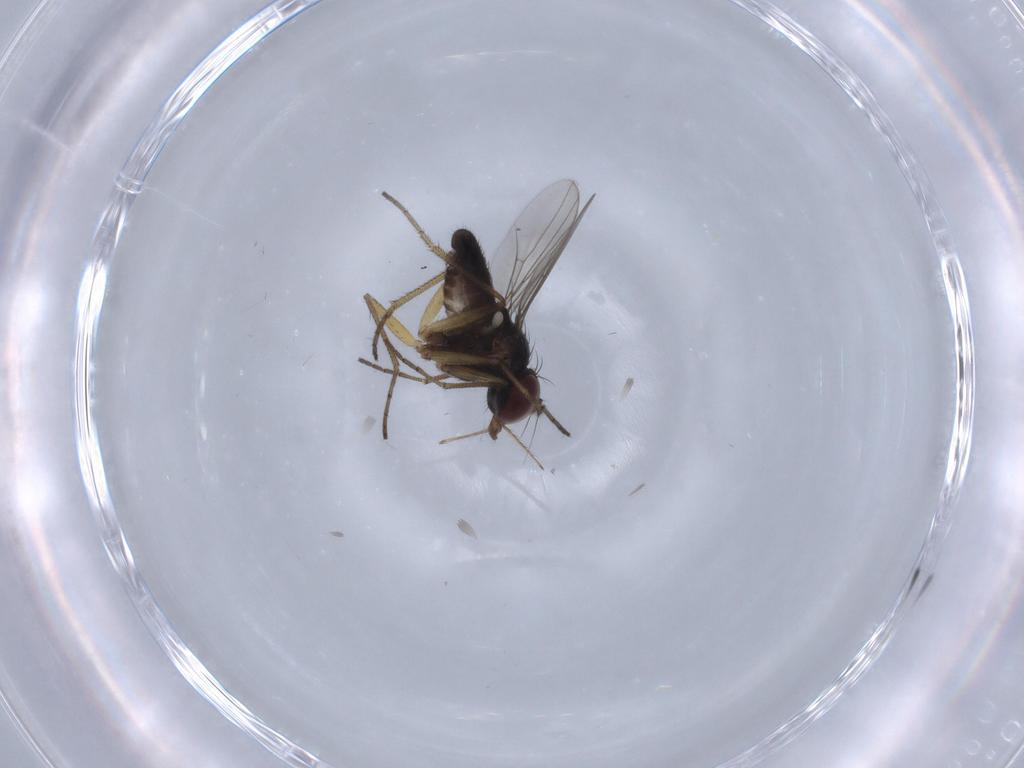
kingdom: Animalia
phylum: Arthropoda
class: Insecta
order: Diptera
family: Dolichopodidae
